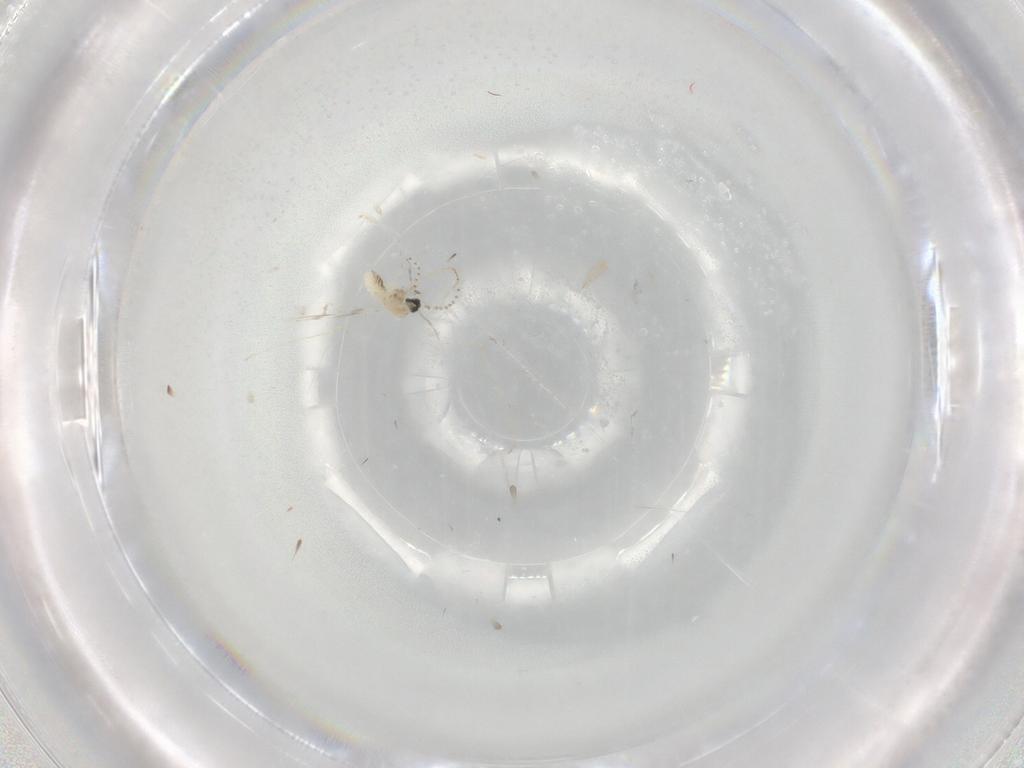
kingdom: Animalia
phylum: Arthropoda
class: Insecta
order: Diptera
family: Cecidomyiidae
